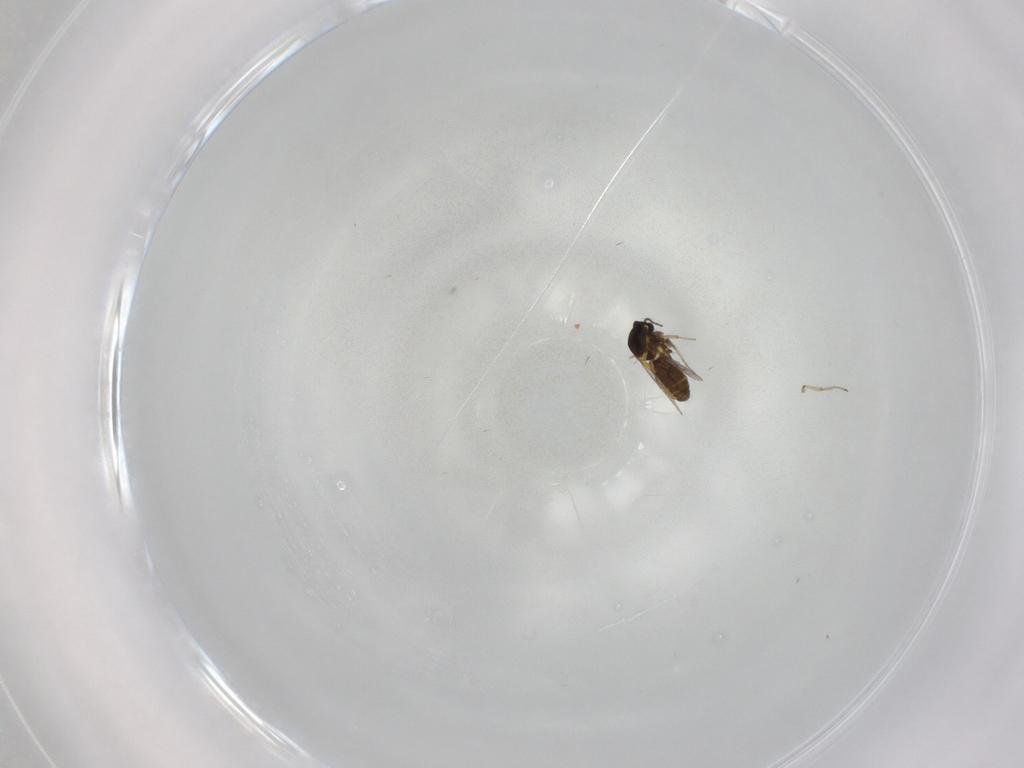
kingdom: Animalia
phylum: Arthropoda
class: Insecta
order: Diptera
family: Ceratopogonidae
